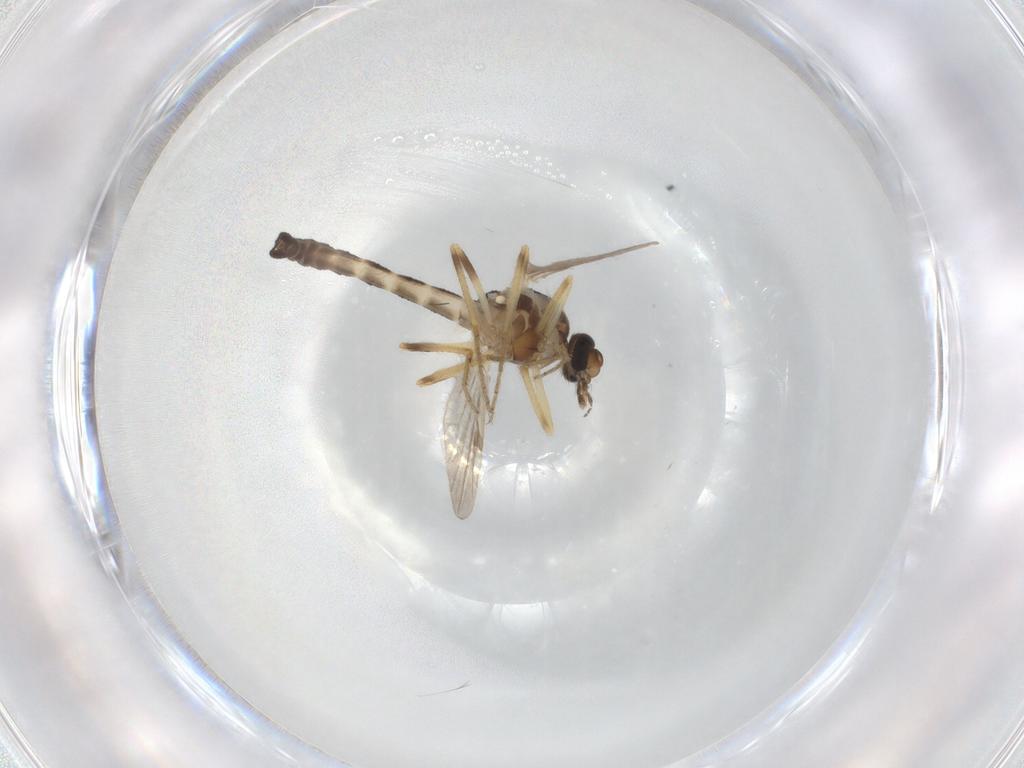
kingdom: Animalia
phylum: Arthropoda
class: Insecta
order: Diptera
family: Ceratopogonidae
